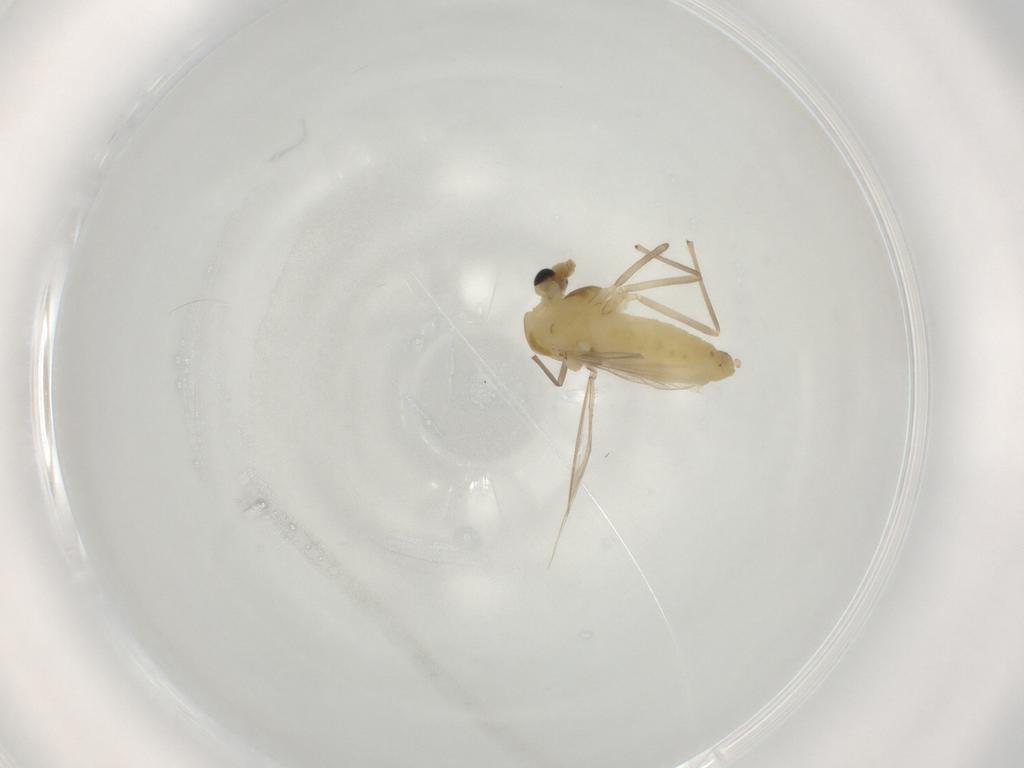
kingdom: Animalia
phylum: Arthropoda
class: Insecta
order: Diptera
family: Chironomidae
